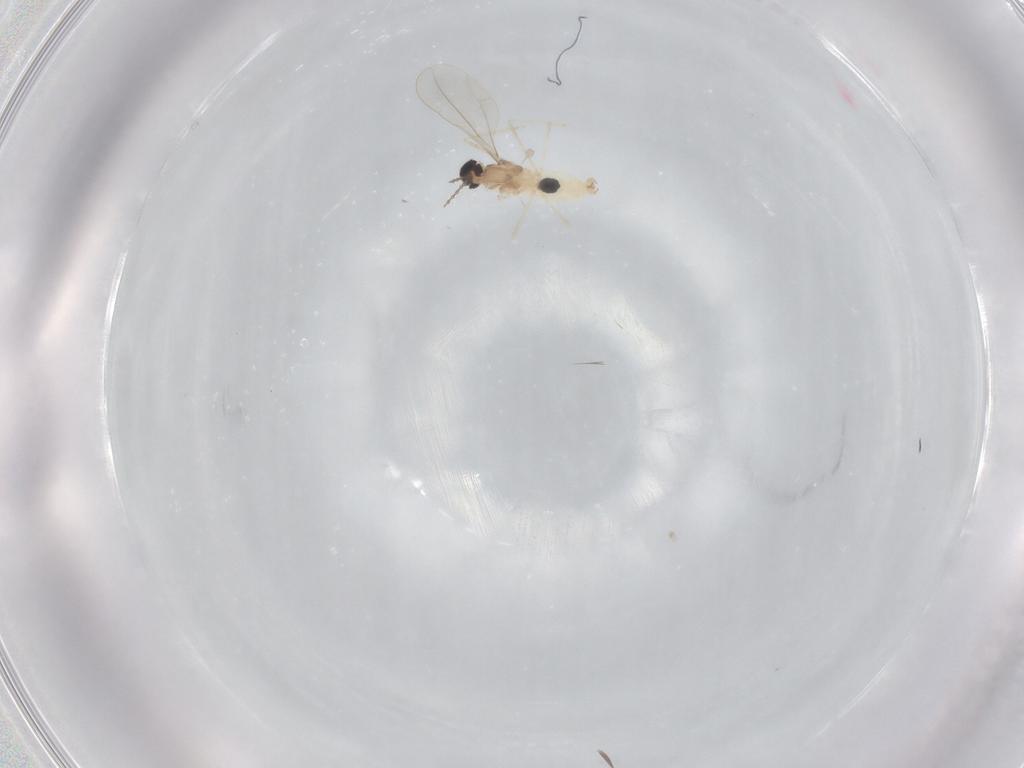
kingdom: Animalia
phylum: Arthropoda
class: Insecta
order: Diptera
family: Cecidomyiidae
